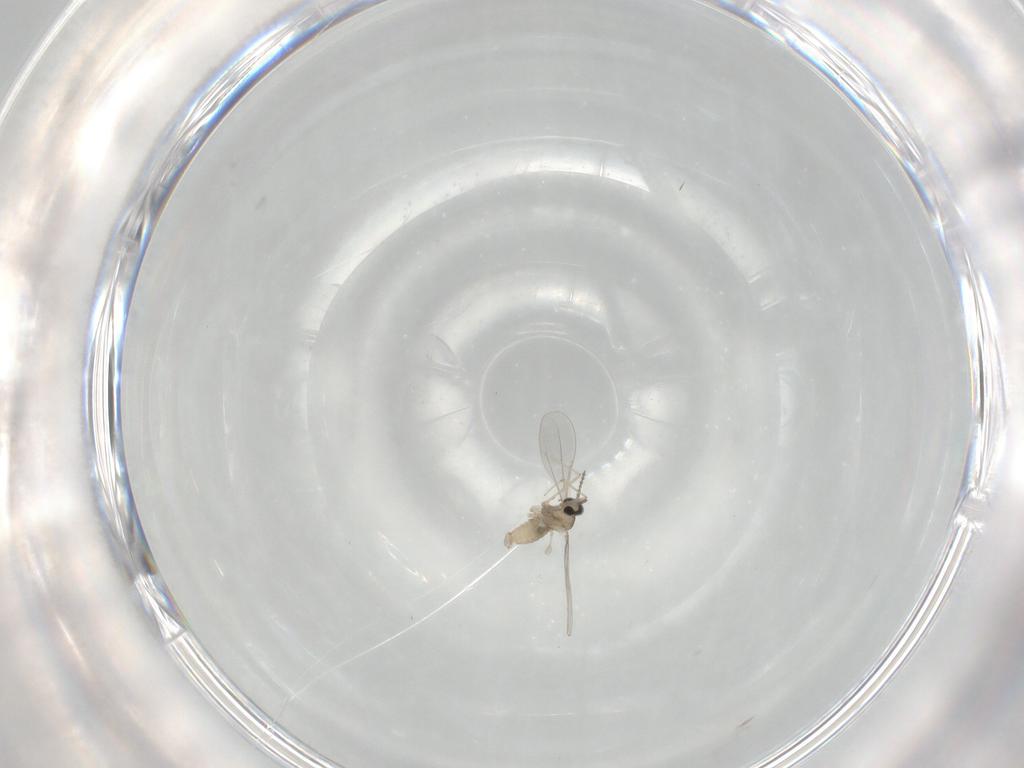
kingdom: Animalia
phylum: Arthropoda
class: Insecta
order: Diptera
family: Cecidomyiidae
